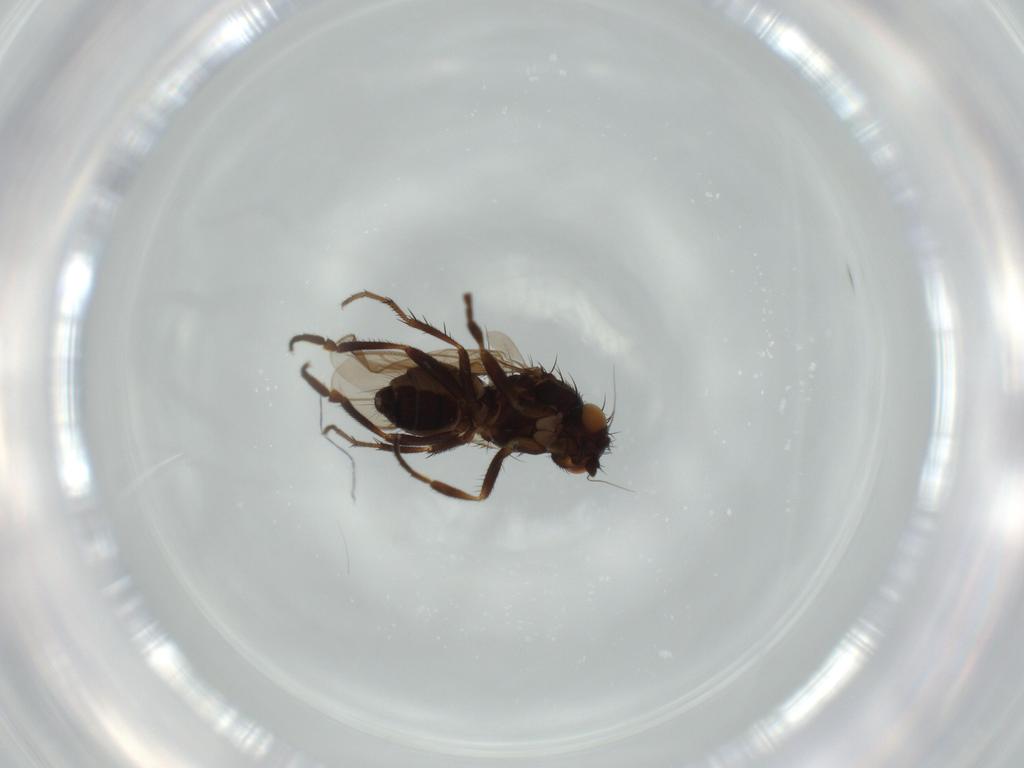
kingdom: Animalia
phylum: Arthropoda
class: Insecta
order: Diptera
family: Sphaeroceridae
